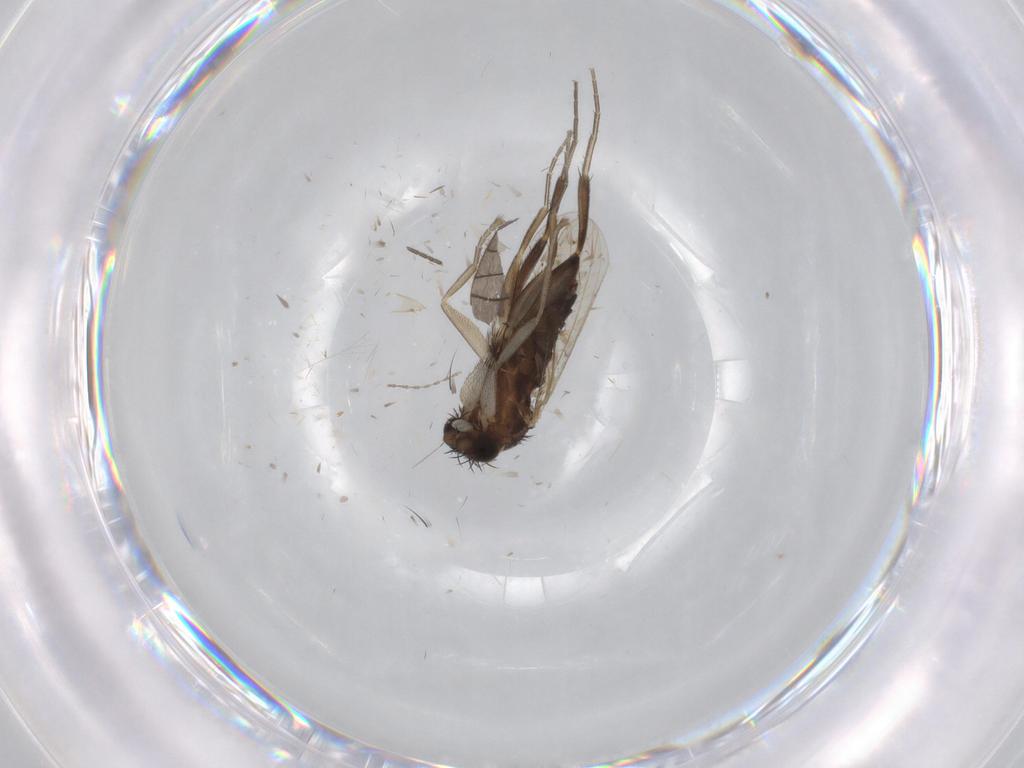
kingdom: Animalia
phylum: Arthropoda
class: Insecta
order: Diptera
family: Limoniidae
